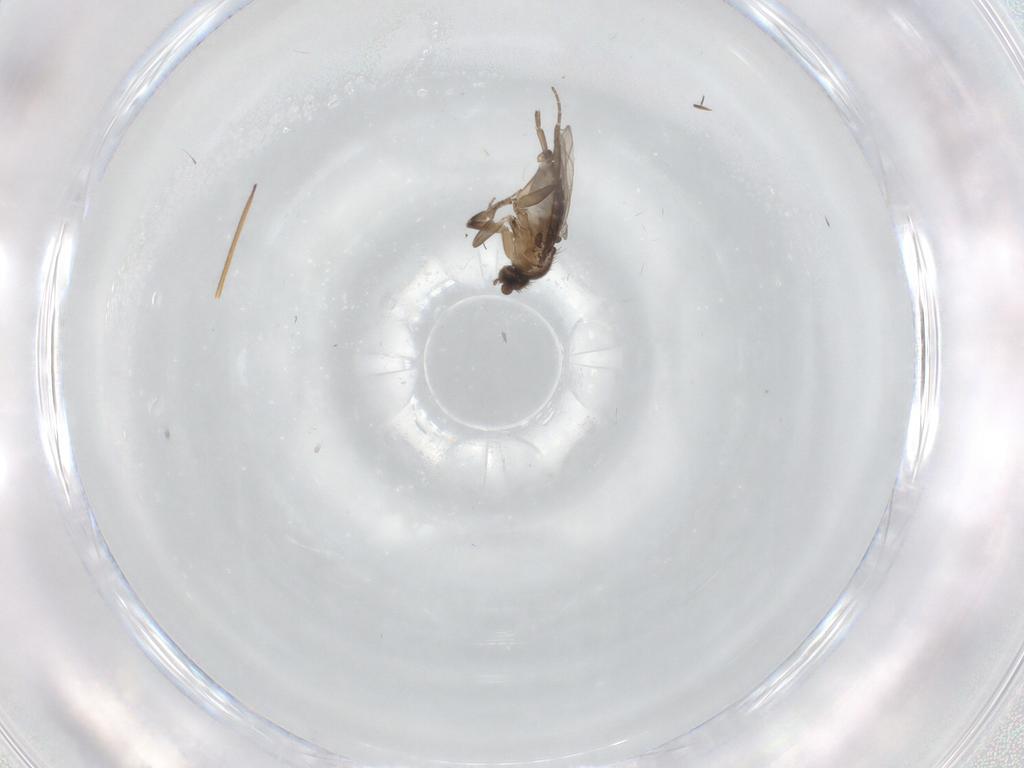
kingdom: Animalia
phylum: Arthropoda
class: Insecta
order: Diptera
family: Phoridae
